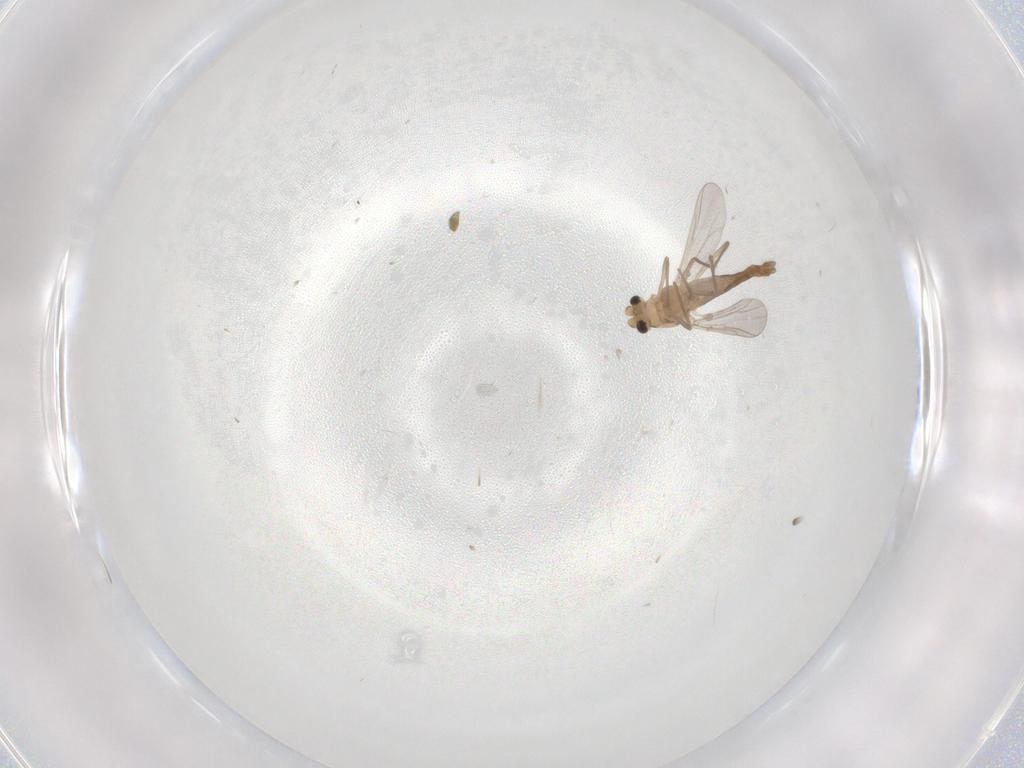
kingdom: Animalia
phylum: Arthropoda
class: Insecta
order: Diptera
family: Chironomidae
